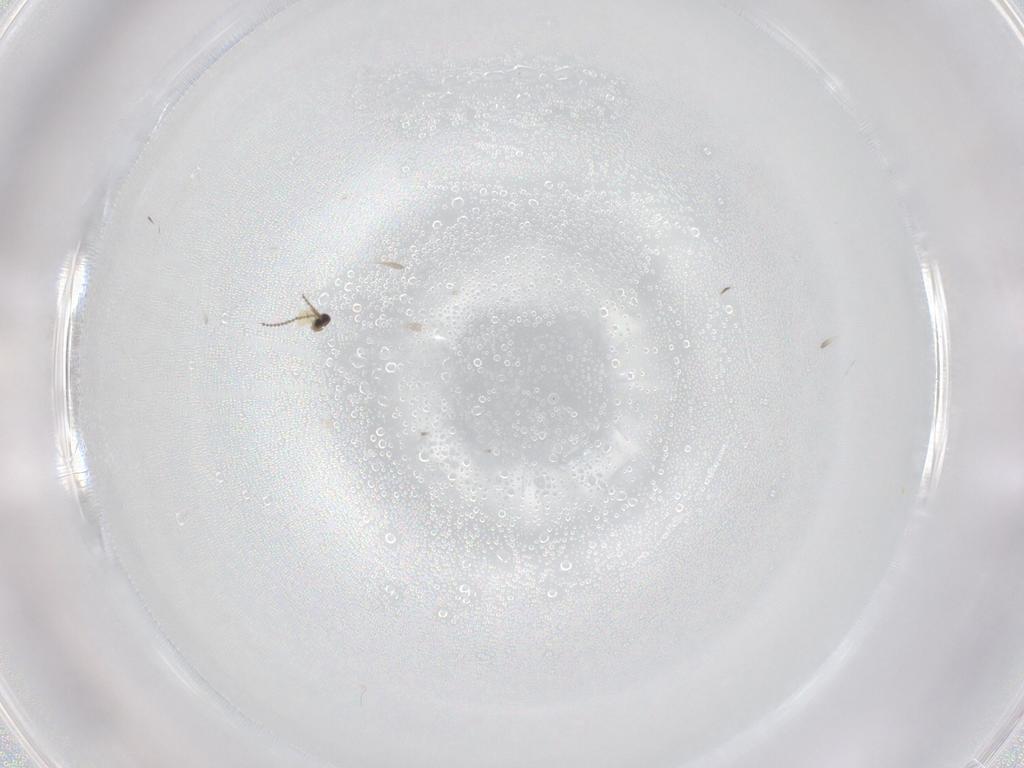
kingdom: Animalia
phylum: Arthropoda
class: Insecta
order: Diptera
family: Cecidomyiidae
